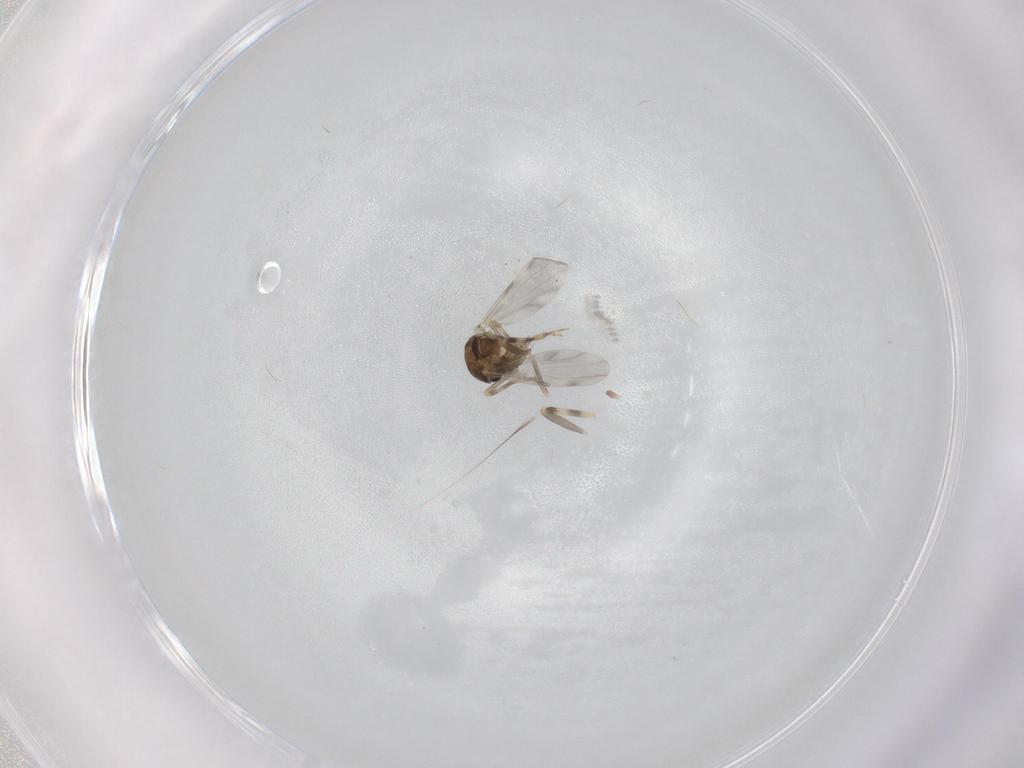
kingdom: Animalia
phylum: Arthropoda
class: Insecta
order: Diptera
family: Ceratopogonidae
